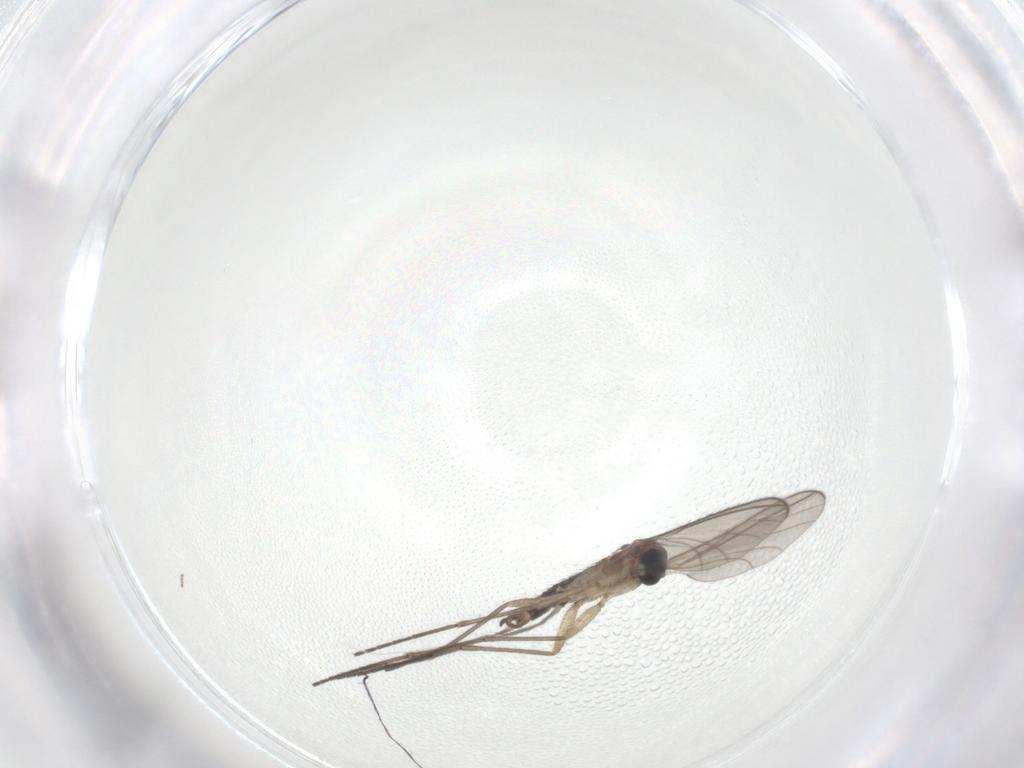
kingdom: Animalia
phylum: Arthropoda
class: Insecta
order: Diptera
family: Sciaridae
